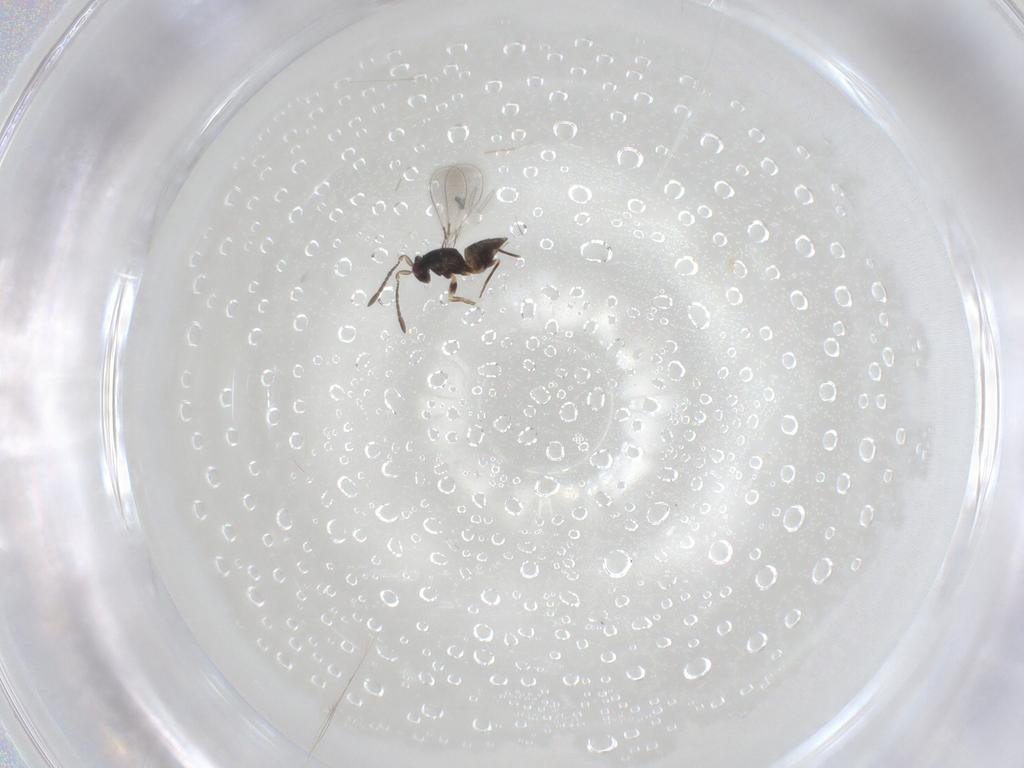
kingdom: Animalia
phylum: Arthropoda
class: Insecta
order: Hymenoptera
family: Mymaridae
